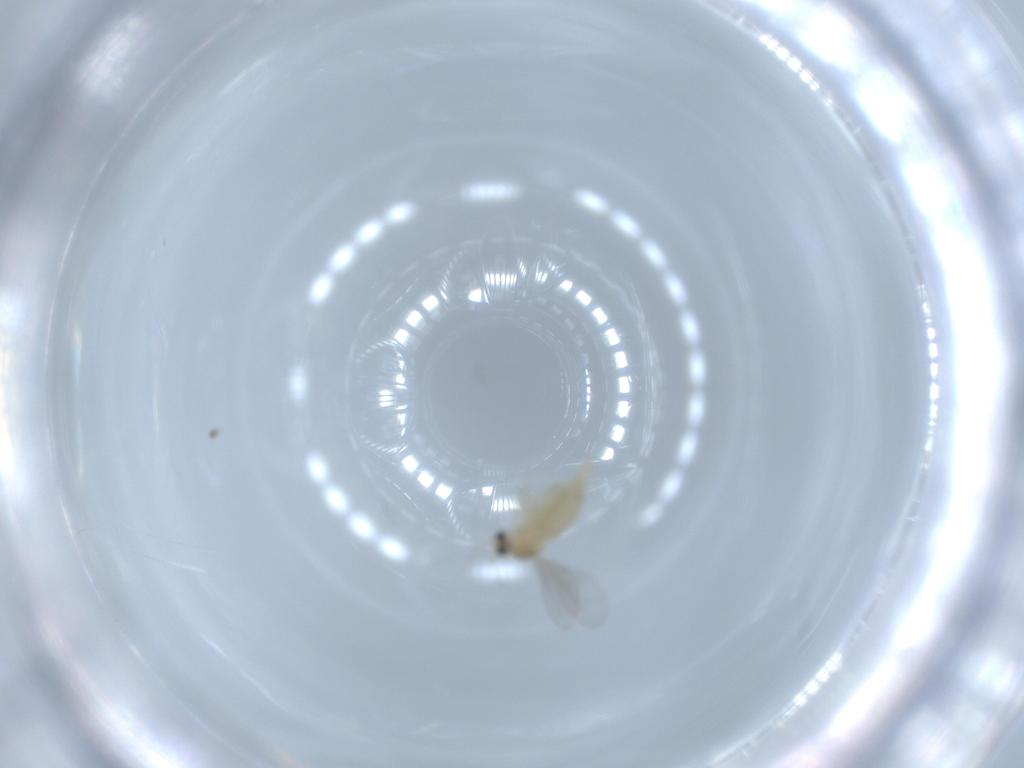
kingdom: Animalia
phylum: Arthropoda
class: Insecta
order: Diptera
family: Cecidomyiidae
